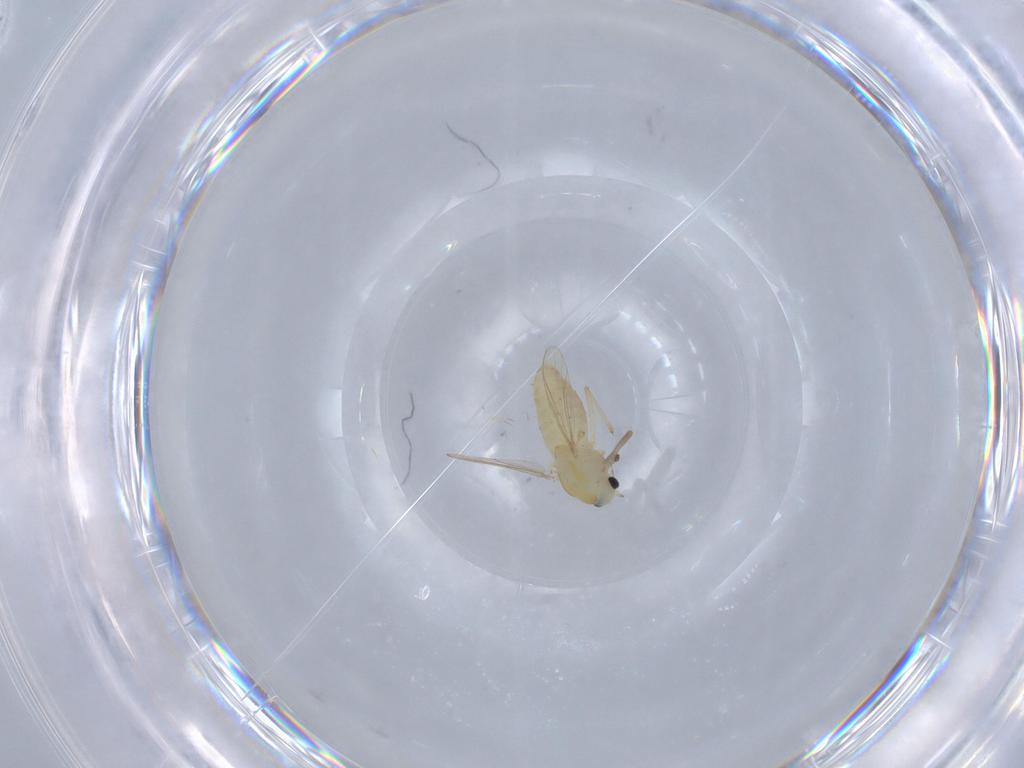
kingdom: Animalia
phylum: Arthropoda
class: Insecta
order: Diptera
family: Chironomidae
